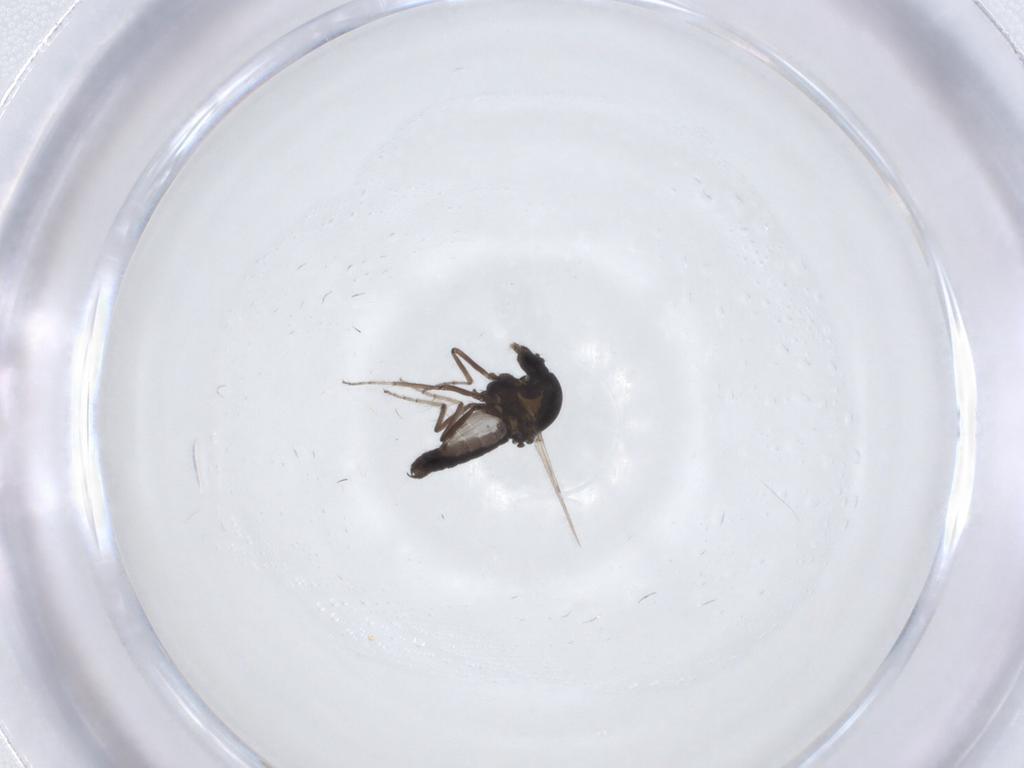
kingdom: Animalia
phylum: Arthropoda
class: Insecta
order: Diptera
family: Ceratopogonidae
